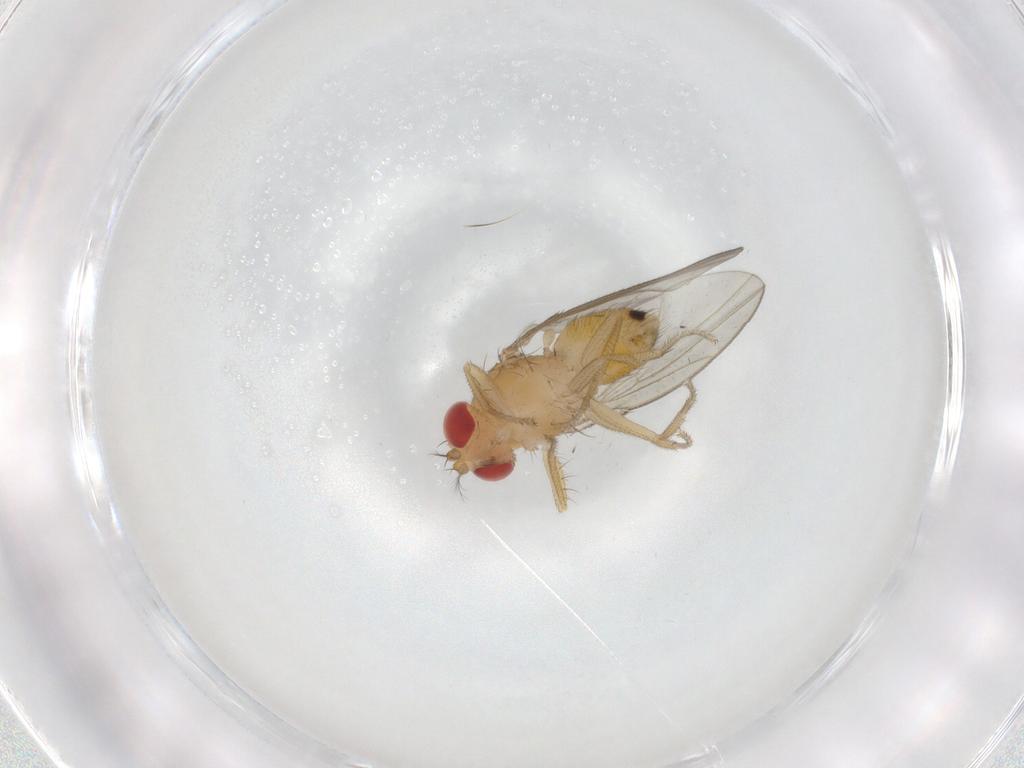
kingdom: Animalia
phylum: Arthropoda
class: Insecta
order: Diptera
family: Drosophilidae
